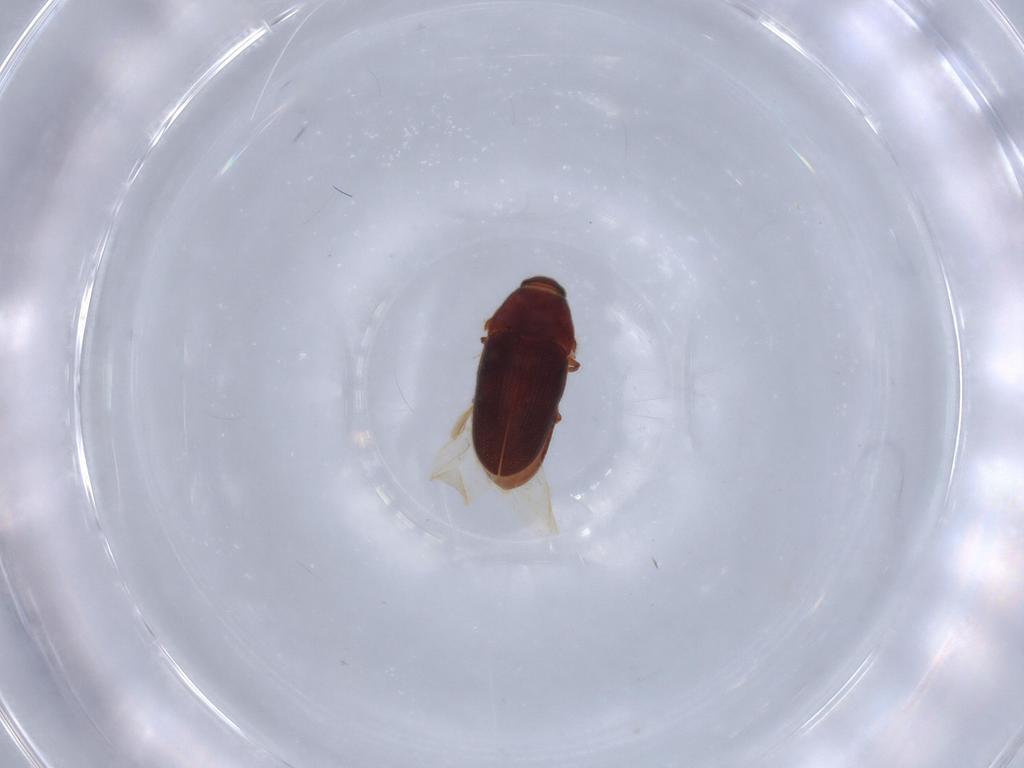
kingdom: Animalia
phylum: Arthropoda
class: Insecta
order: Coleoptera
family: Throscidae
